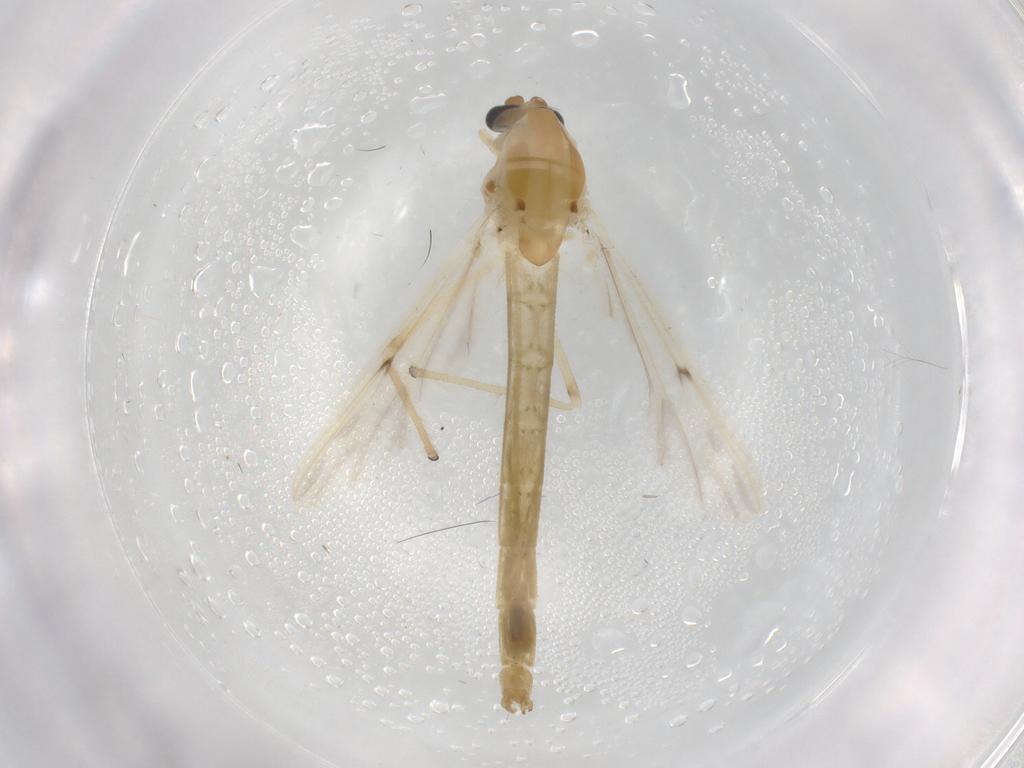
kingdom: Animalia
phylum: Arthropoda
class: Insecta
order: Diptera
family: Chironomidae
